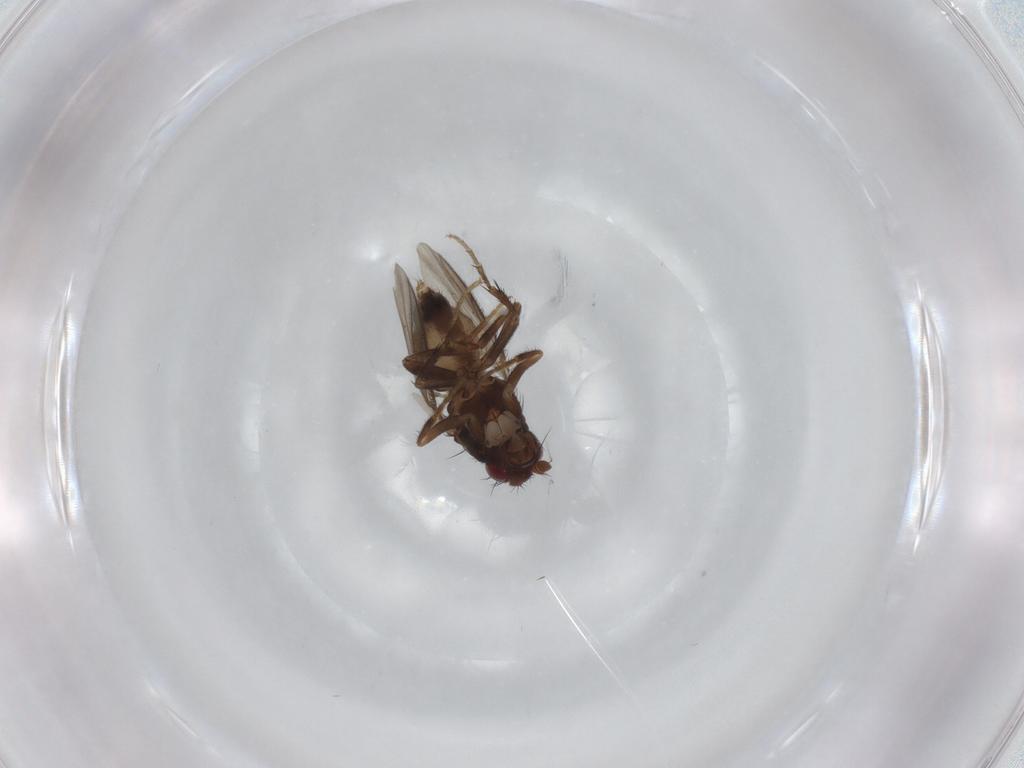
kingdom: Animalia
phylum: Arthropoda
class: Insecta
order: Diptera
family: Sphaeroceridae
